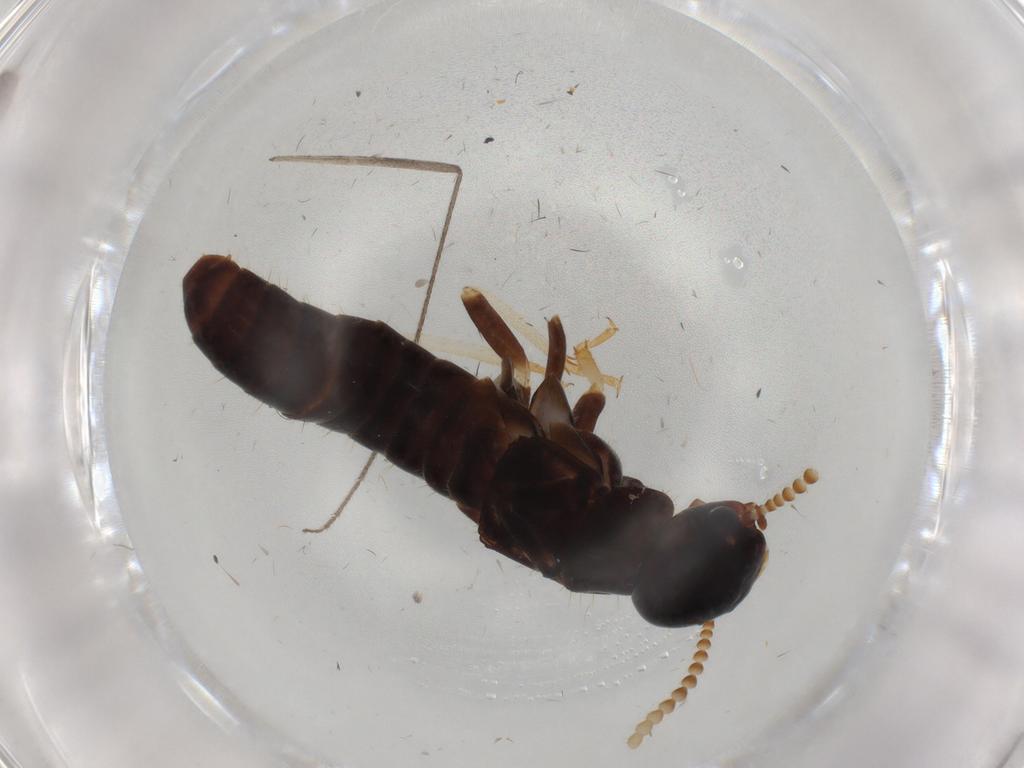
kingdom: Animalia
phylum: Arthropoda
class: Insecta
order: Blattodea
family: Kalotermitidae
